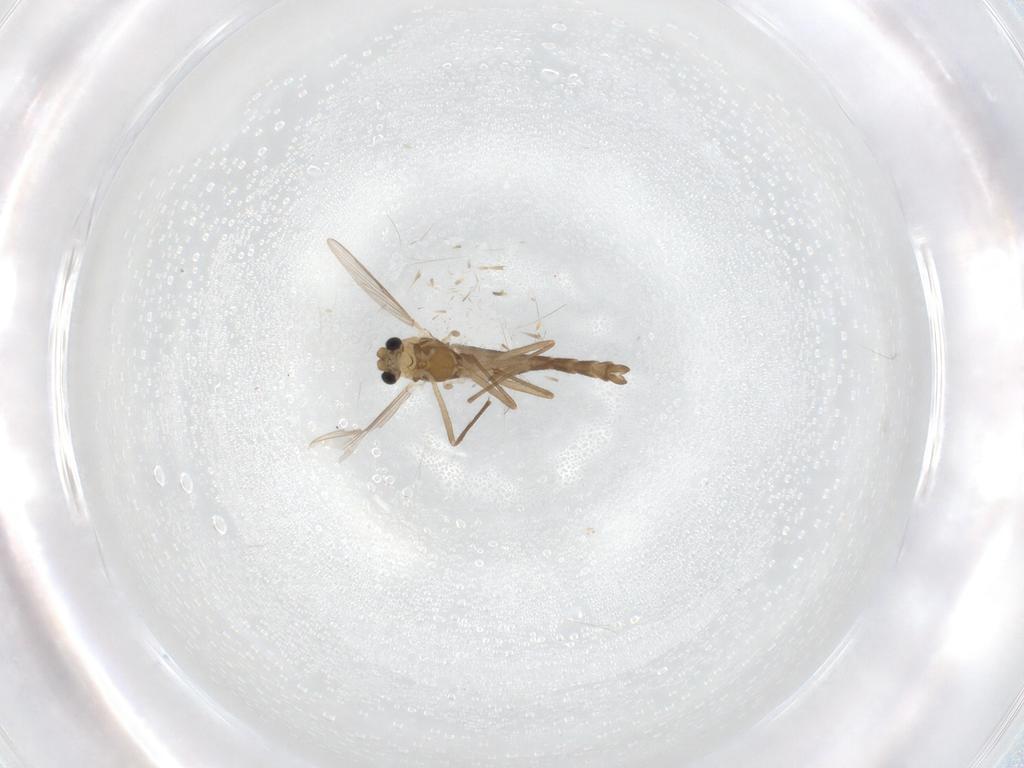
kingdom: Animalia
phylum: Arthropoda
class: Insecta
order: Diptera
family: Chironomidae
